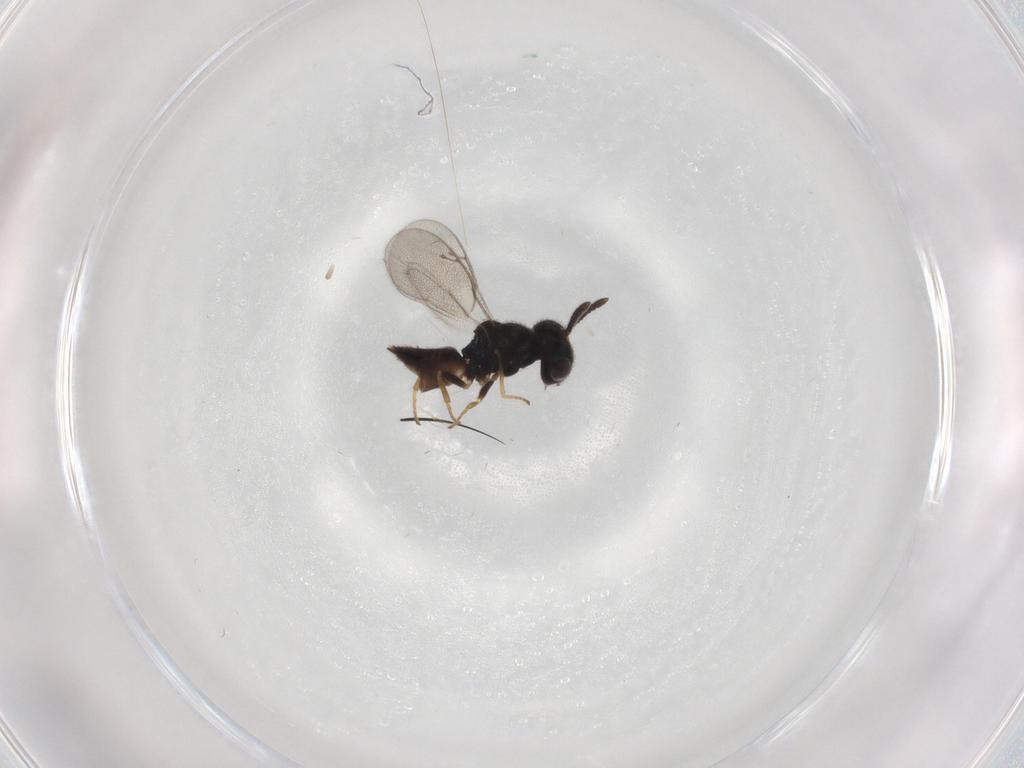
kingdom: Animalia
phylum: Arthropoda
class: Insecta
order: Hymenoptera
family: Pteromalidae
